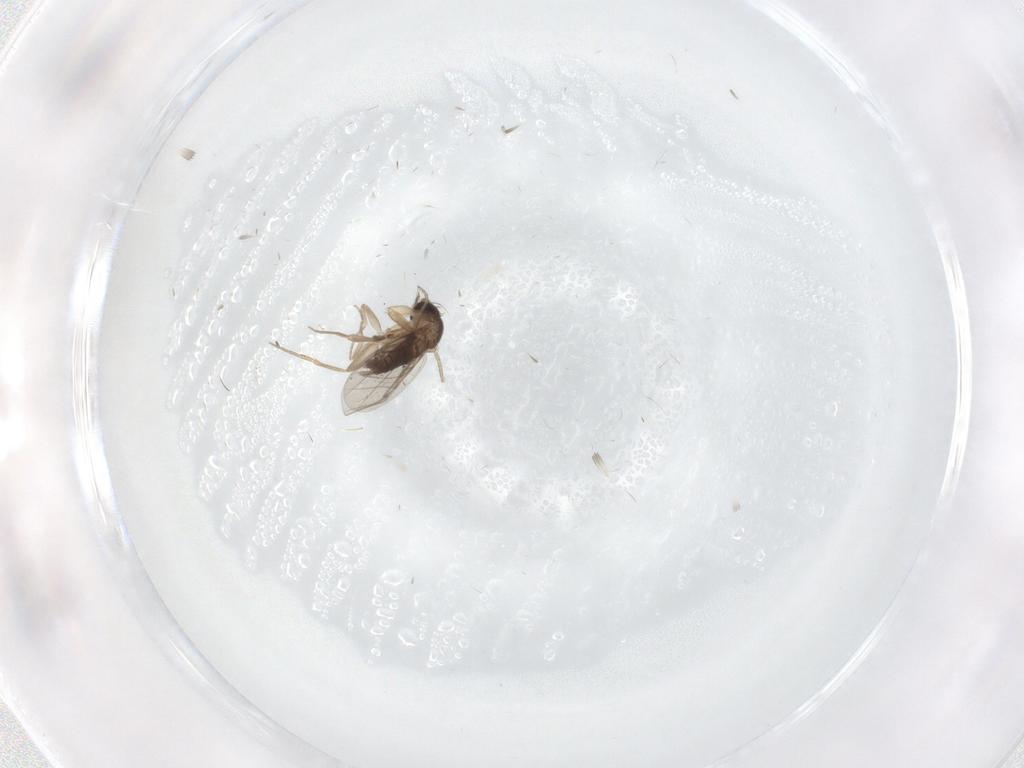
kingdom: Animalia
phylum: Arthropoda
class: Insecta
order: Diptera
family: Phoridae
